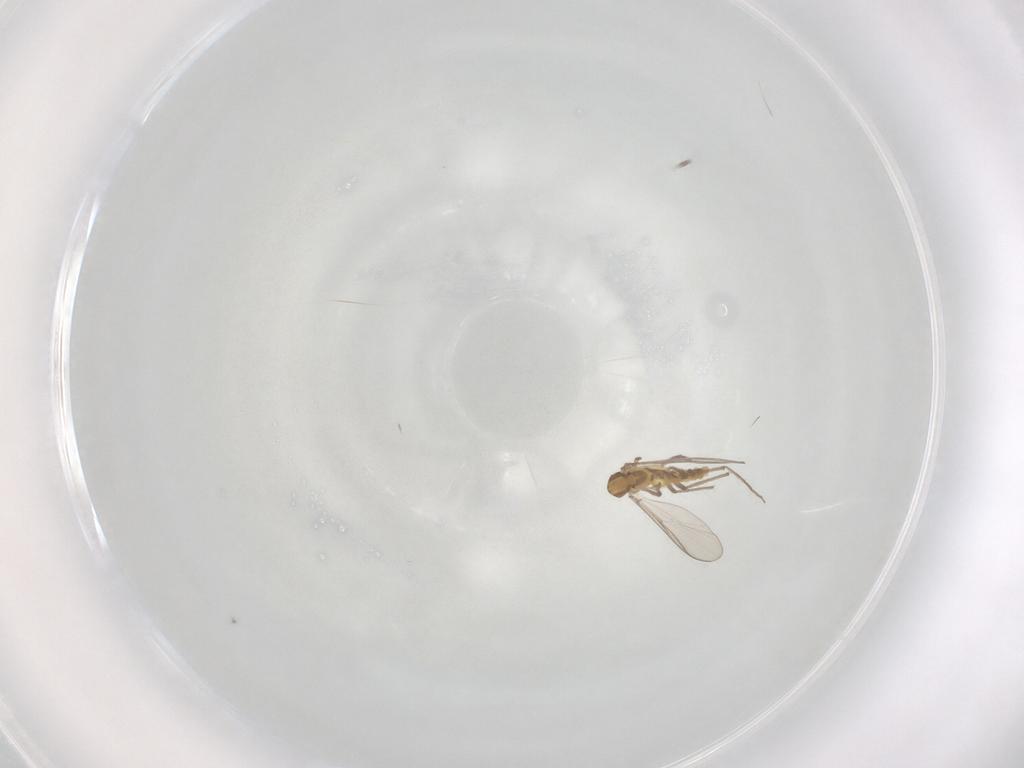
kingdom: Animalia
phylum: Arthropoda
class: Insecta
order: Diptera
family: Chironomidae
